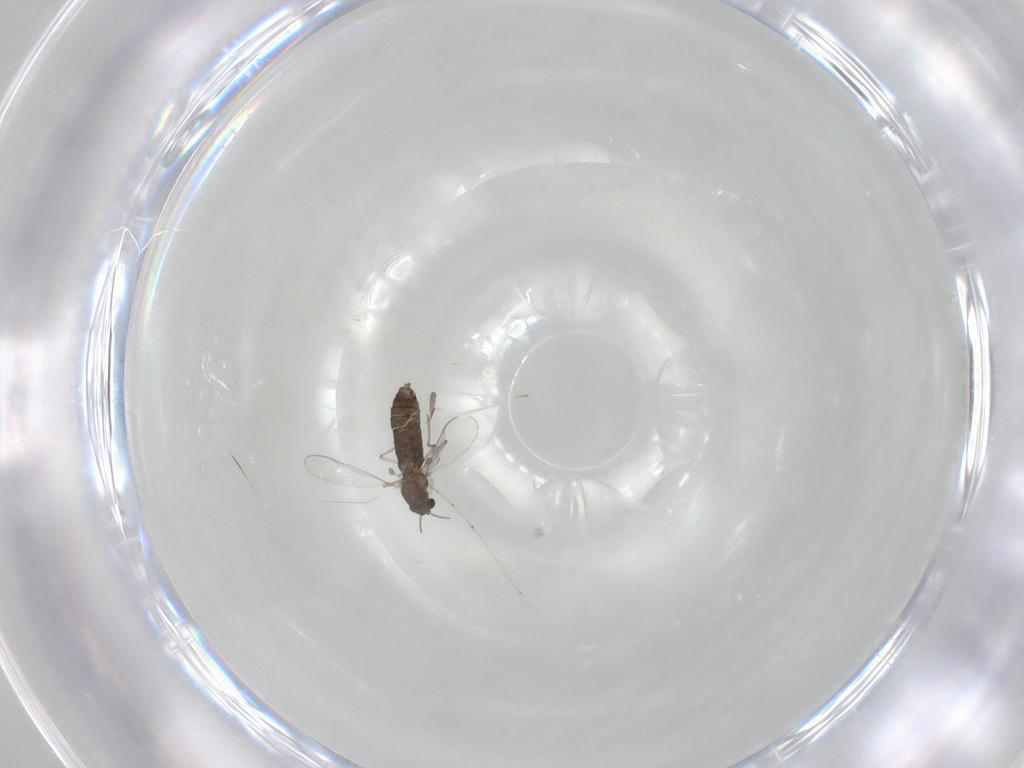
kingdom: Animalia
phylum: Arthropoda
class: Insecta
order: Diptera
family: Chironomidae
